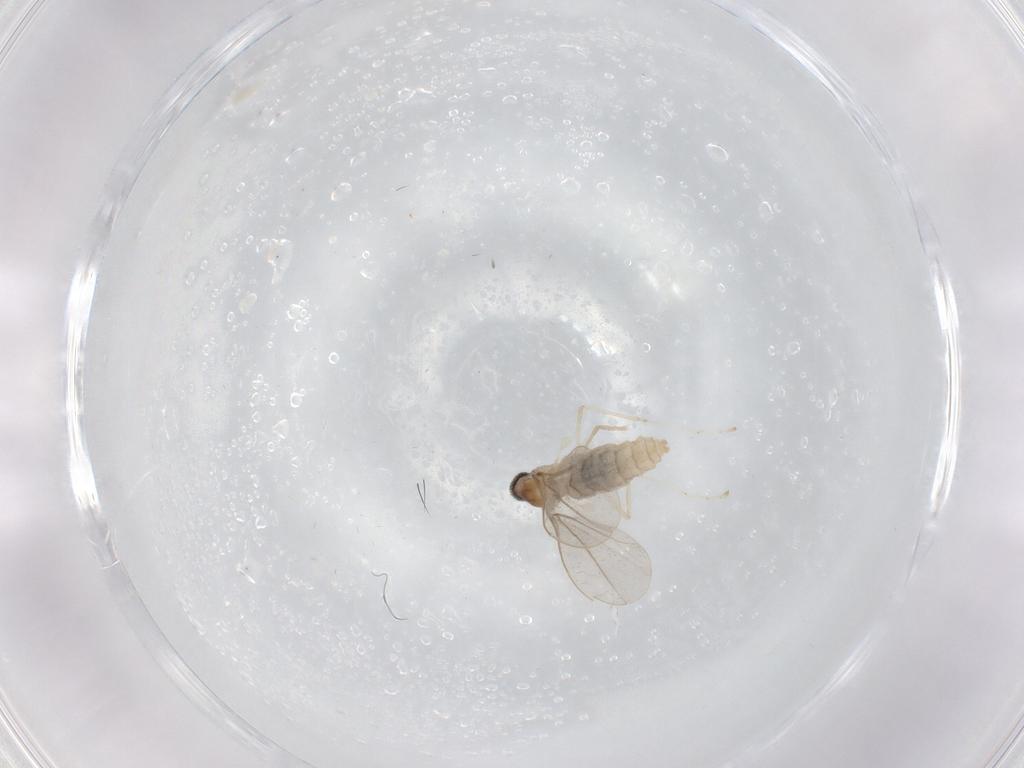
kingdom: Animalia
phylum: Arthropoda
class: Insecta
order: Diptera
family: Cecidomyiidae
